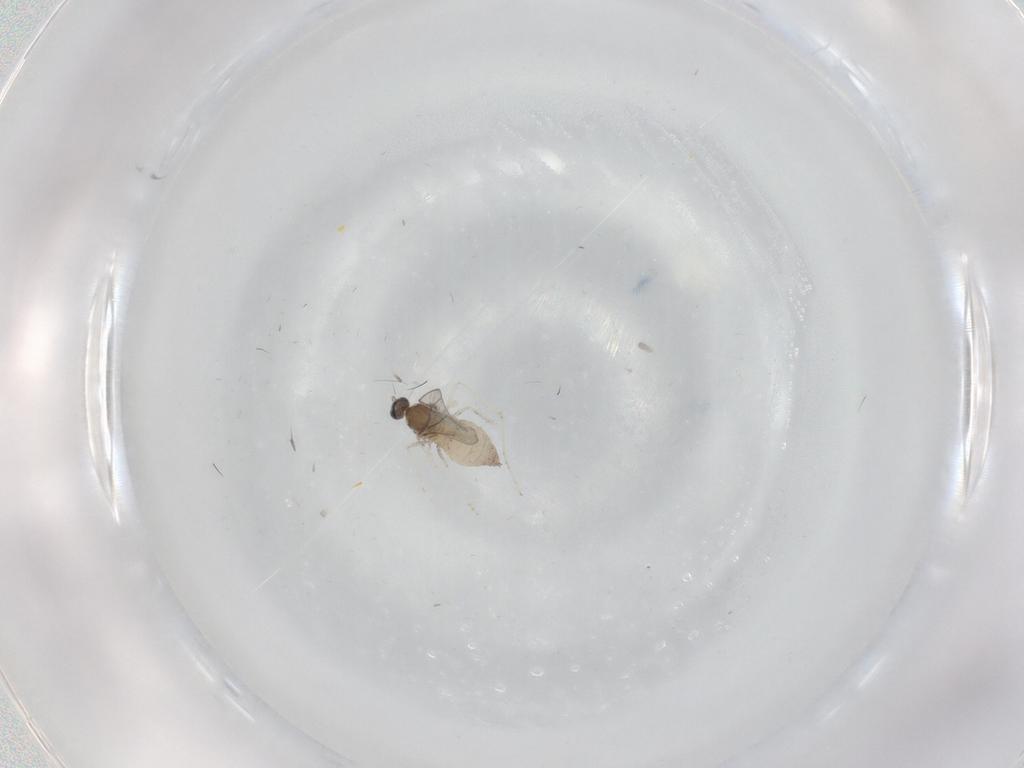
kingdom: Animalia
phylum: Arthropoda
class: Insecta
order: Diptera
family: Cecidomyiidae
